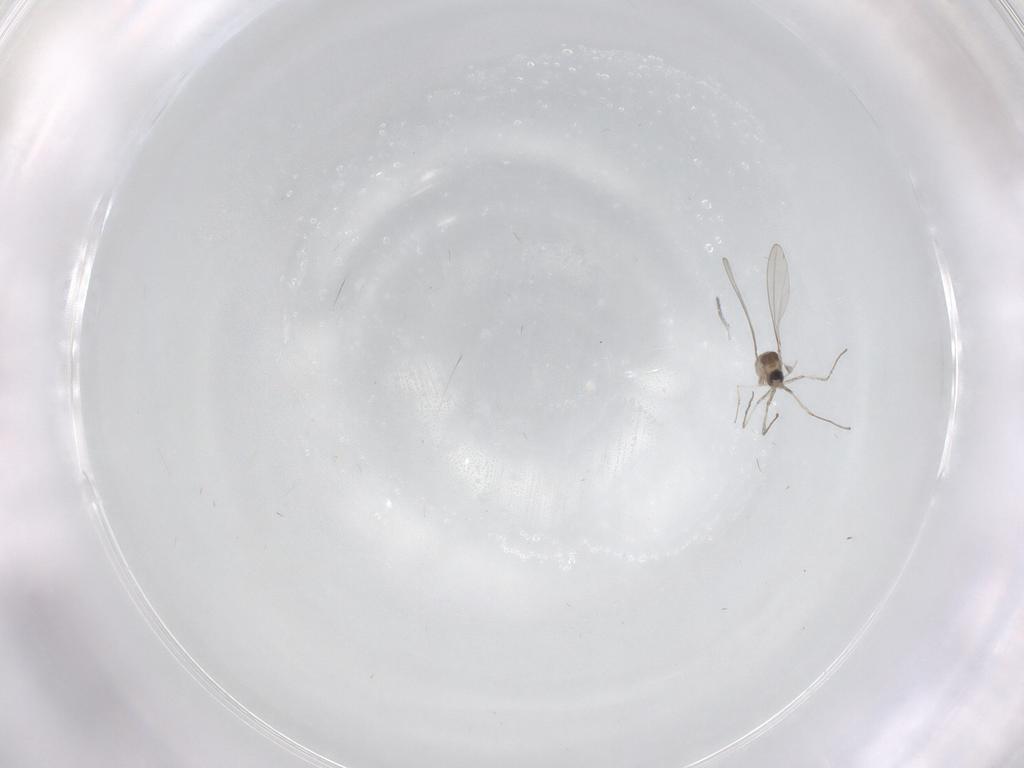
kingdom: Animalia
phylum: Arthropoda
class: Insecta
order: Diptera
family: Cecidomyiidae
